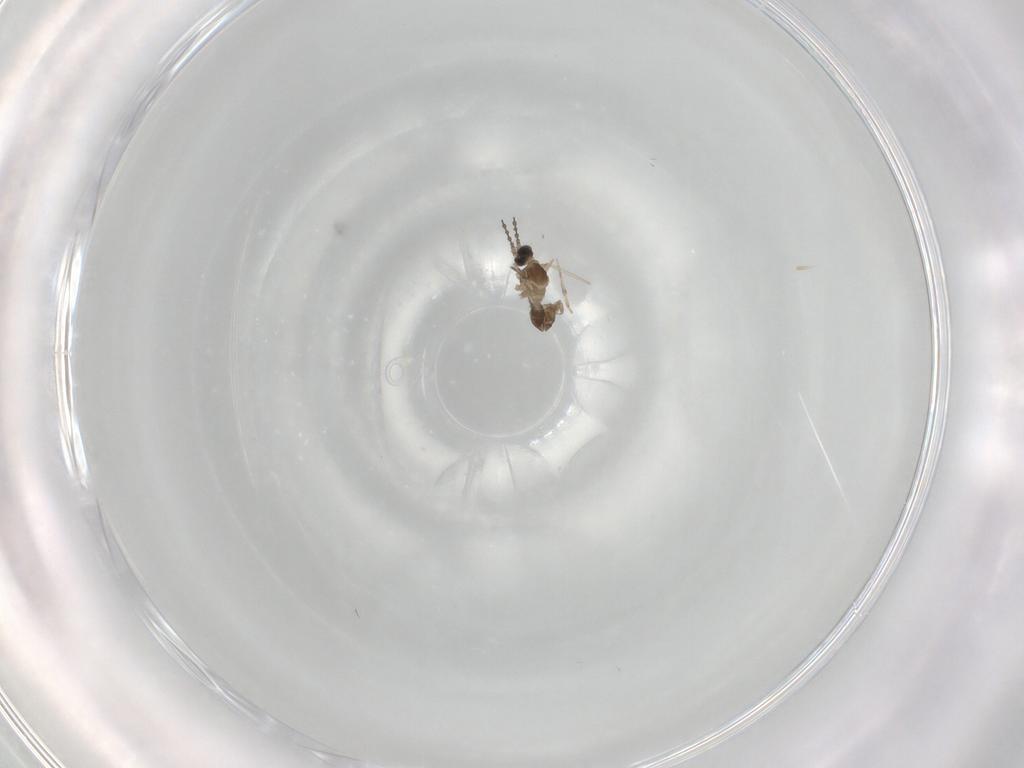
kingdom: Animalia
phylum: Arthropoda
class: Insecta
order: Diptera
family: Cecidomyiidae
